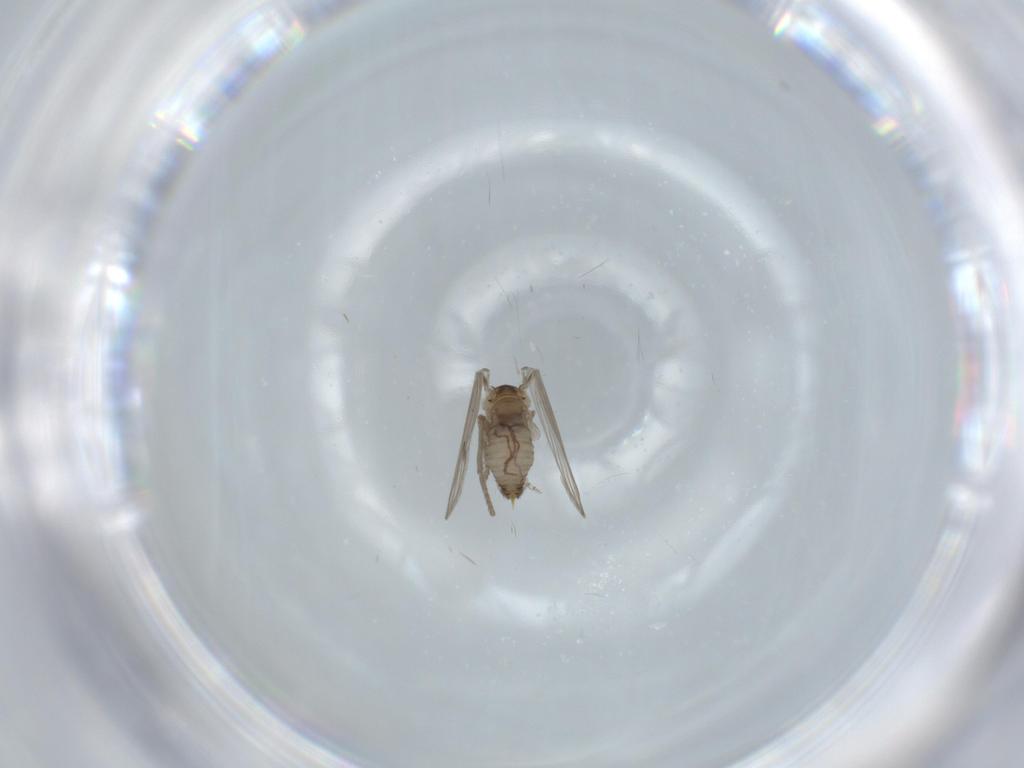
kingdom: Animalia
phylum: Arthropoda
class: Insecta
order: Diptera
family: Psychodidae
